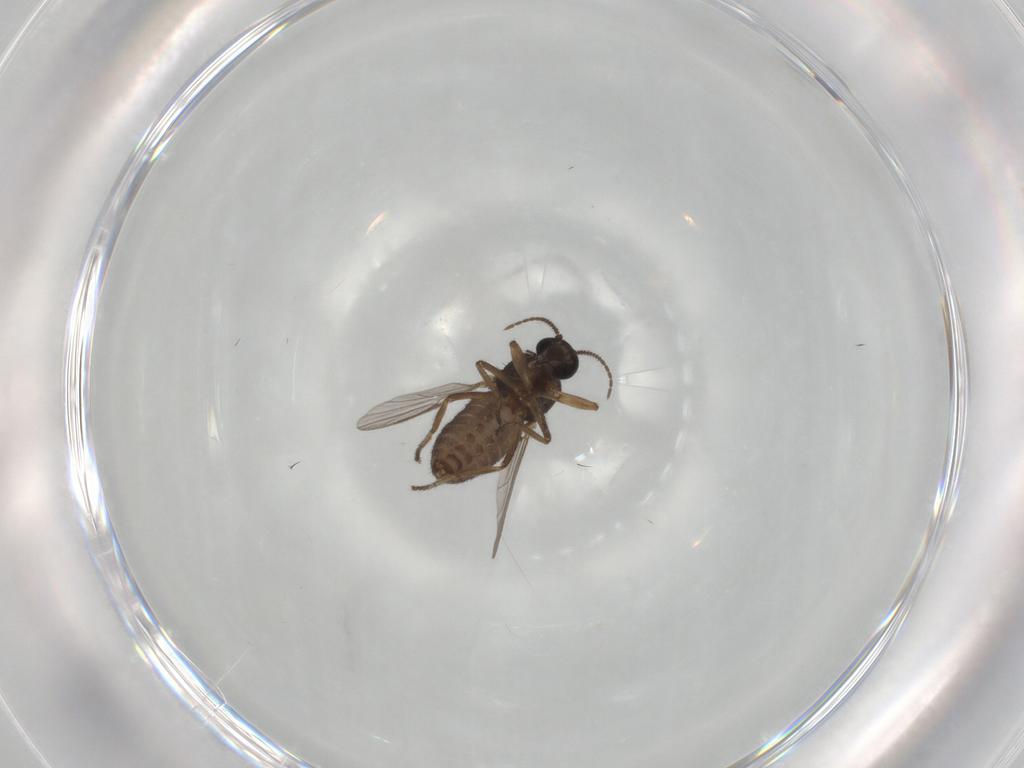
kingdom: Animalia
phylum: Arthropoda
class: Insecta
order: Diptera
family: Ceratopogonidae
